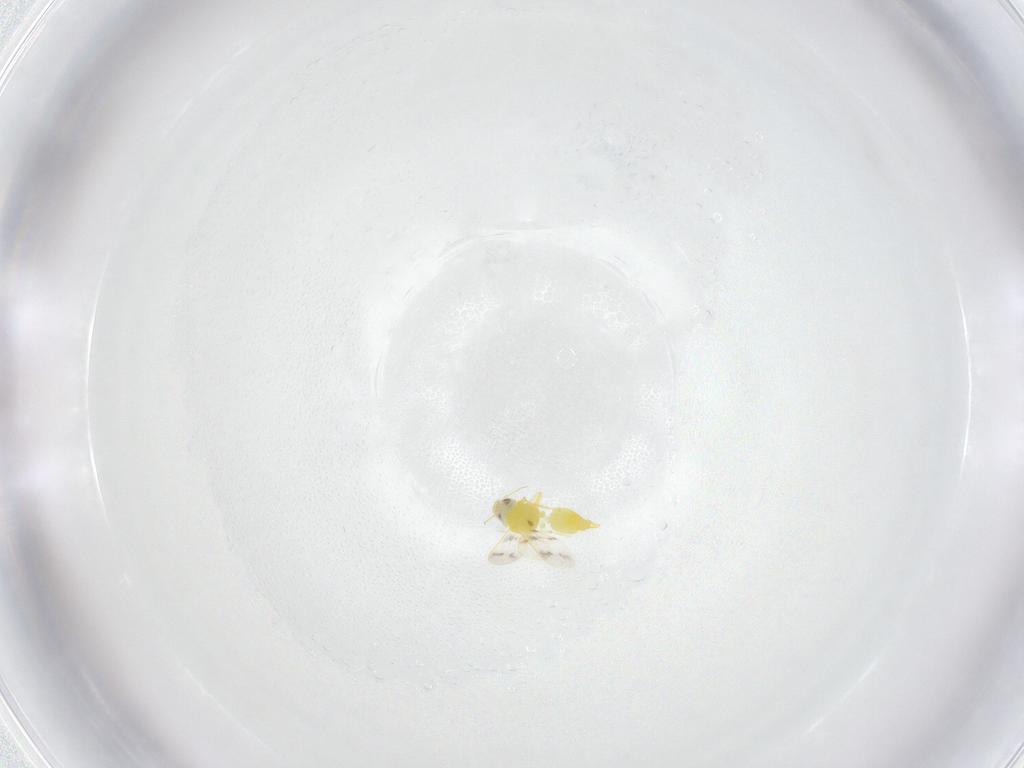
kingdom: Animalia
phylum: Arthropoda
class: Insecta
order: Hemiptera
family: Aleyrodidae
